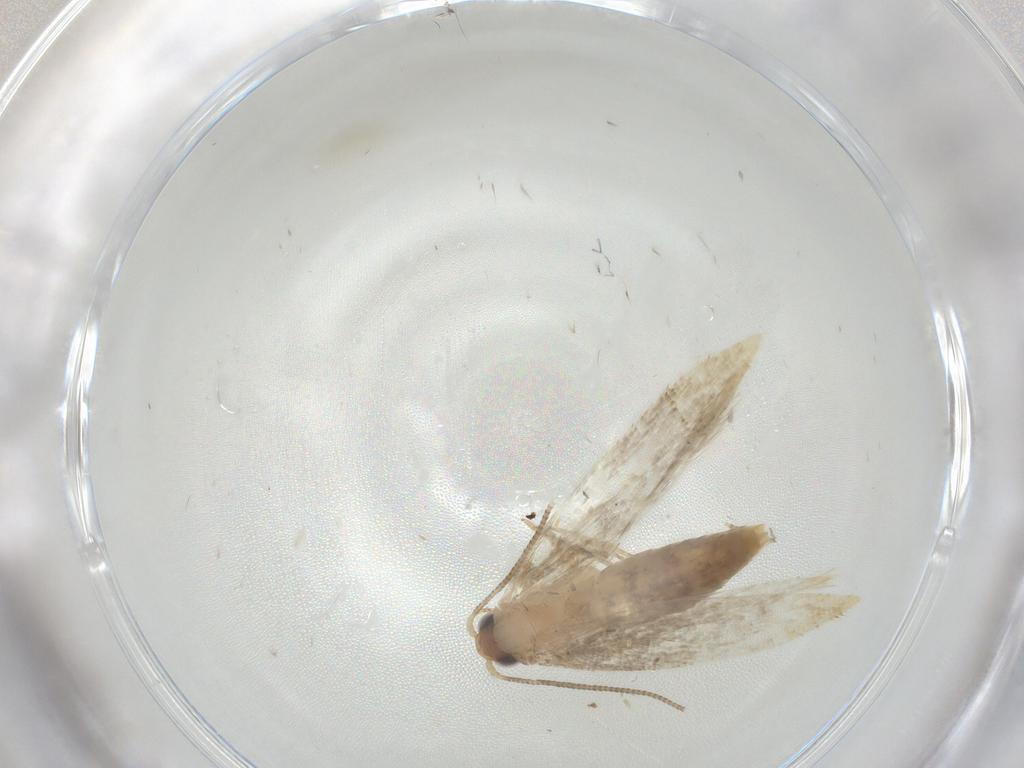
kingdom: Animalia
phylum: Arthropoda
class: Insecta
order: Lepidoptera
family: Tineidae
